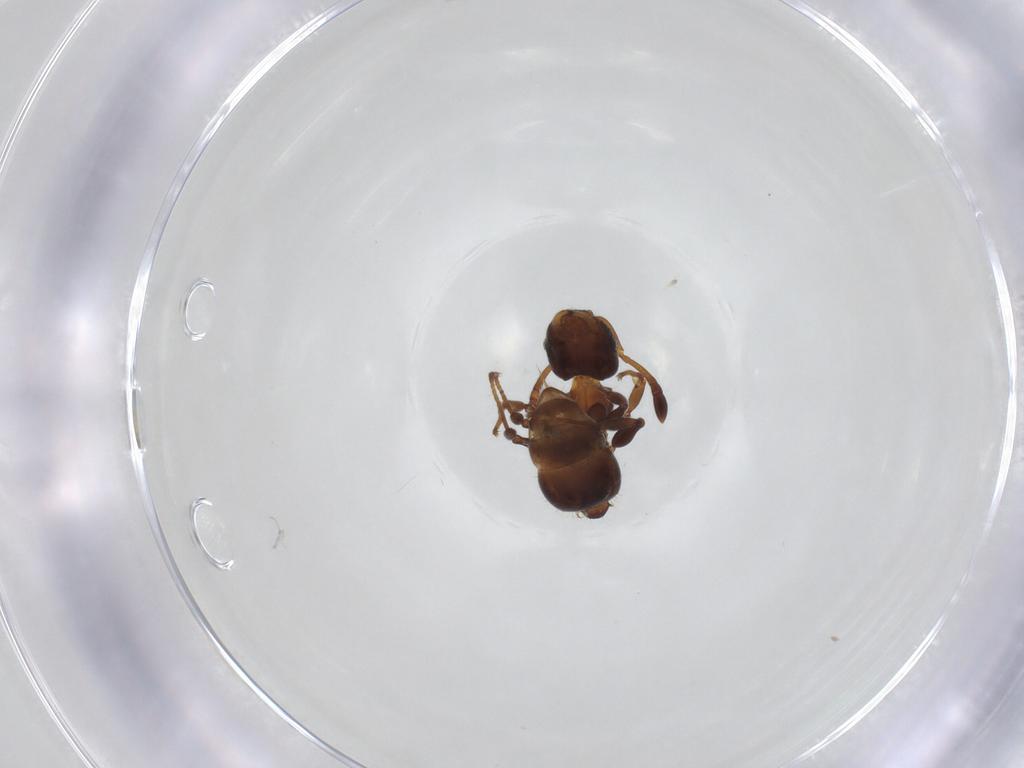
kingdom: Animalia
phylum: Arthropoda
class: Insecta
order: Hymenoptera
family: Formicidae
